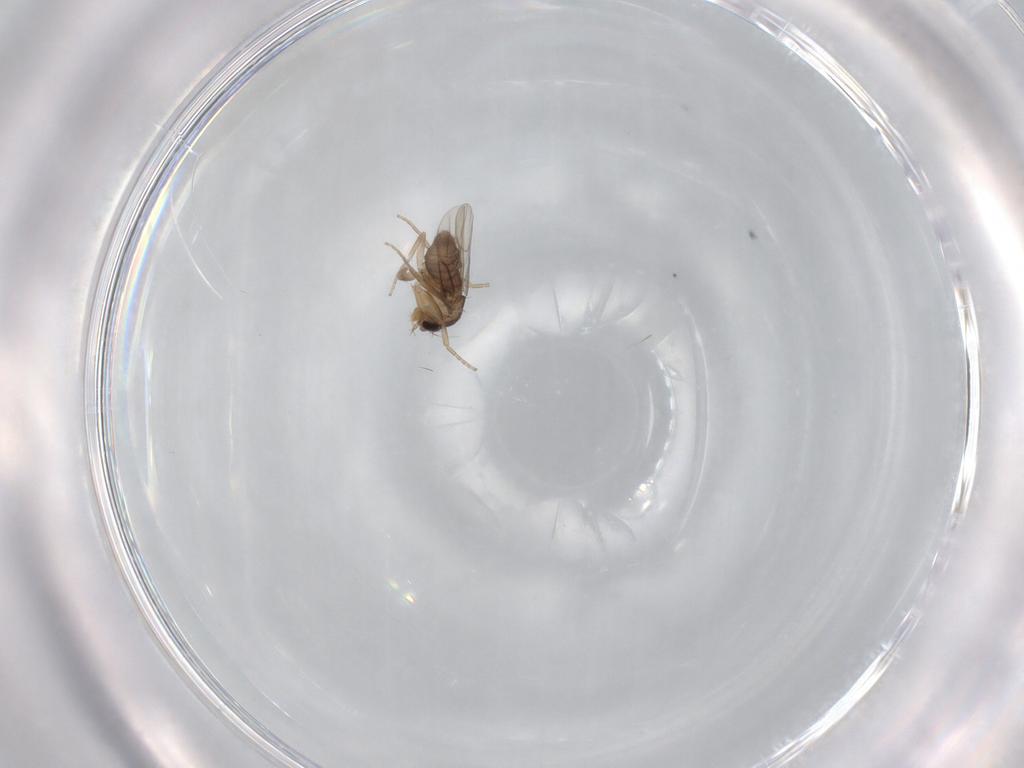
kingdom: Animalia
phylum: Arthropoda
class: Insecta
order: Diptera
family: Phoridae
